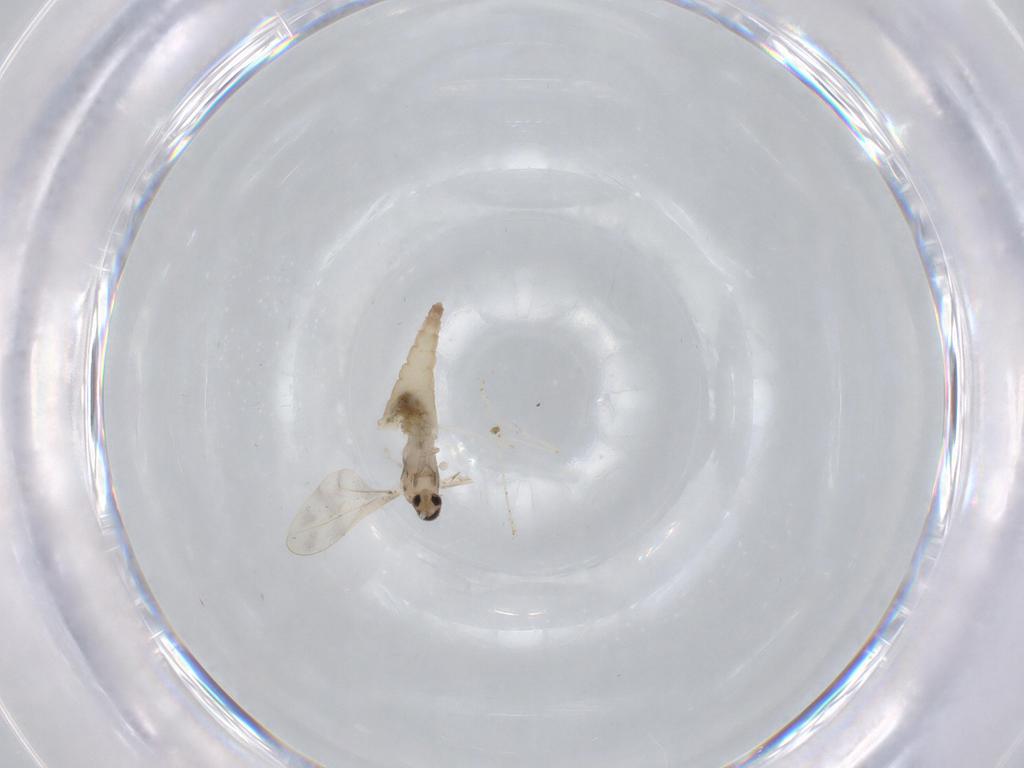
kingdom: Animalia
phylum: Arthropoda
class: Insecta
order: Diptera
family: Cecidomyiidae
